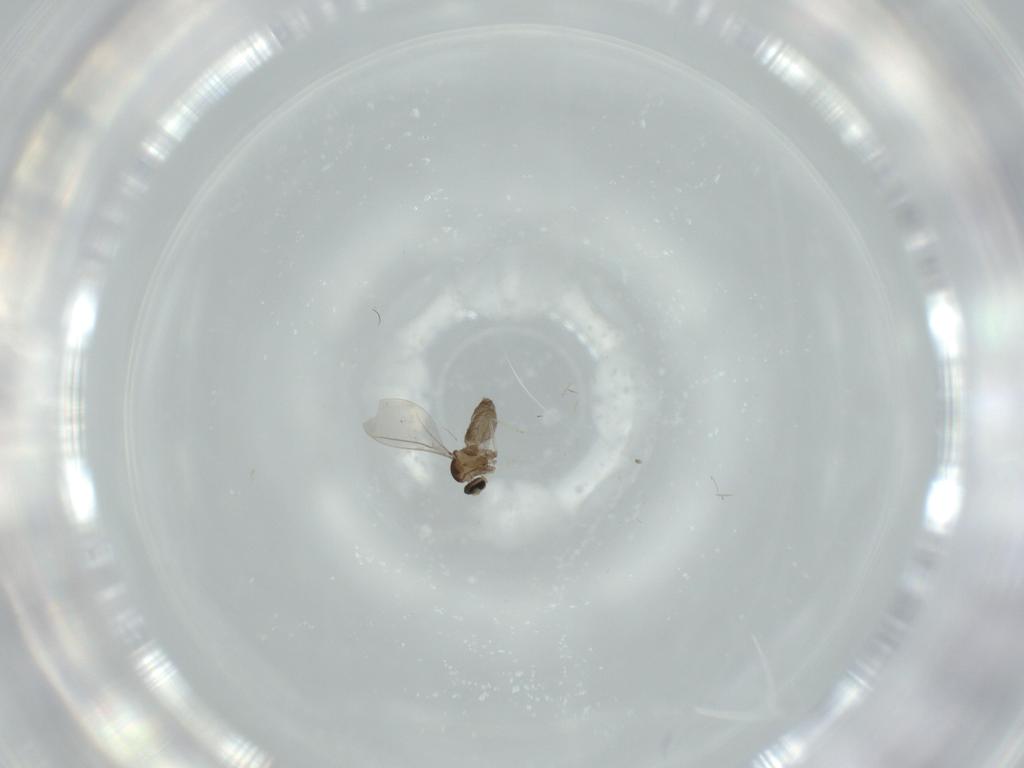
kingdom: Animalia
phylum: Arthropoda
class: Insecta
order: Diptera
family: Cecidomyiidae
